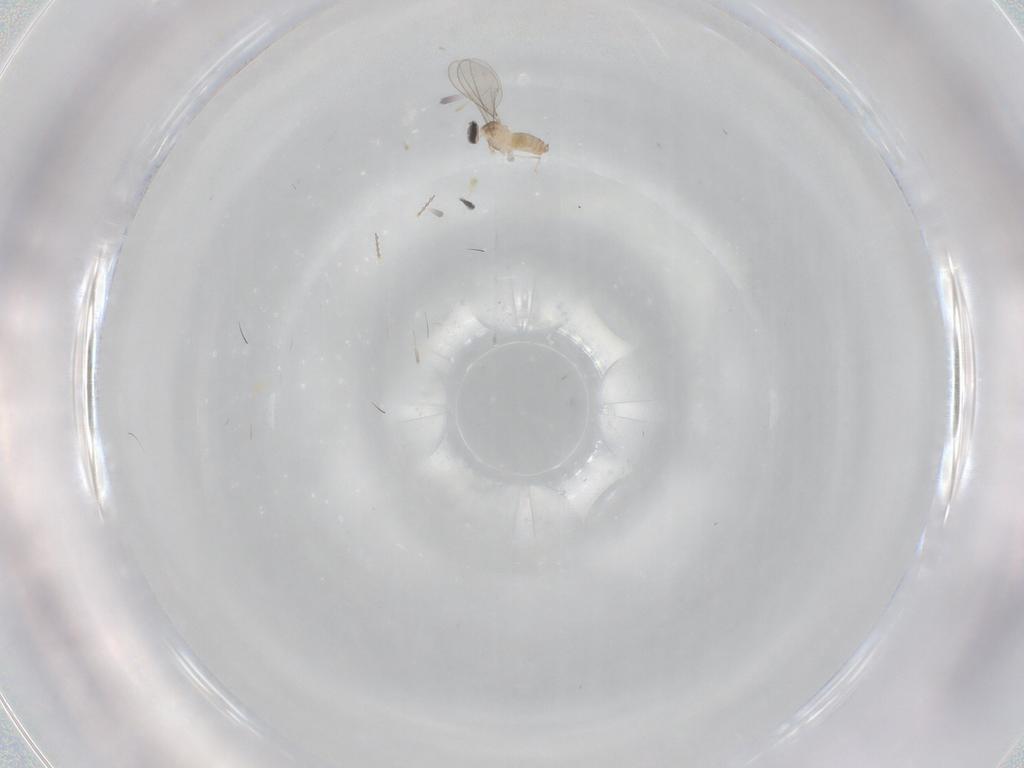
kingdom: Animalia
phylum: Arthropoda
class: Insecta
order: Diptera
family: Cecidomyiidae
